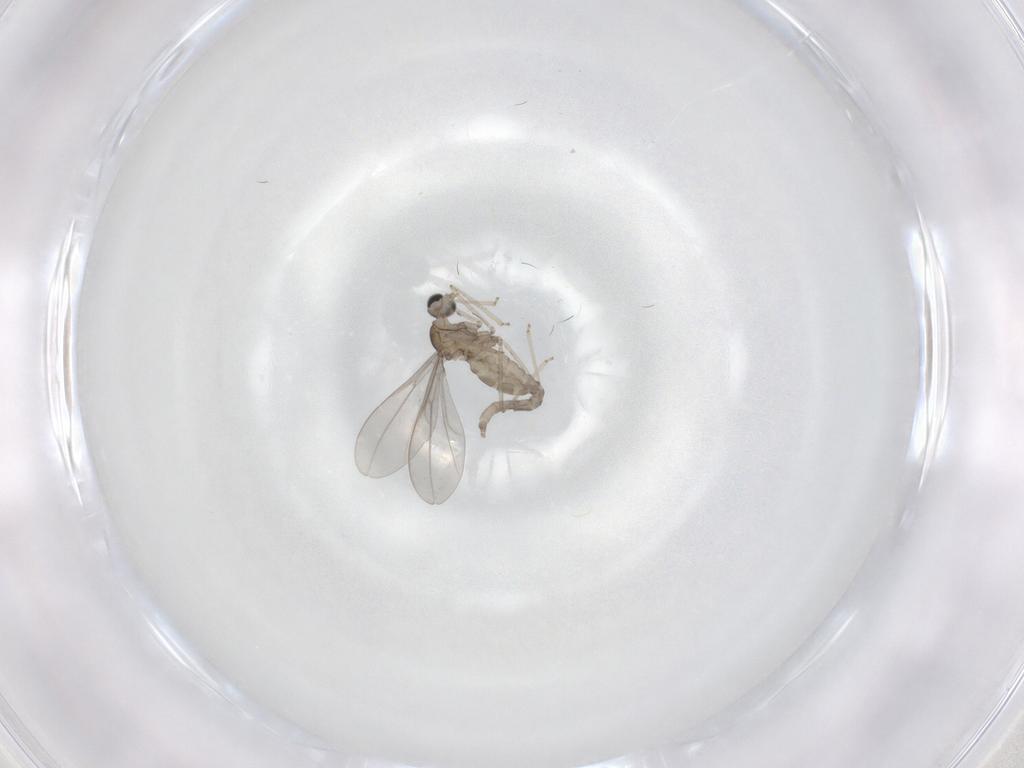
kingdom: Animalia
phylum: Arthropoda
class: Insecta
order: Diptera
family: Cecidomyiidae
